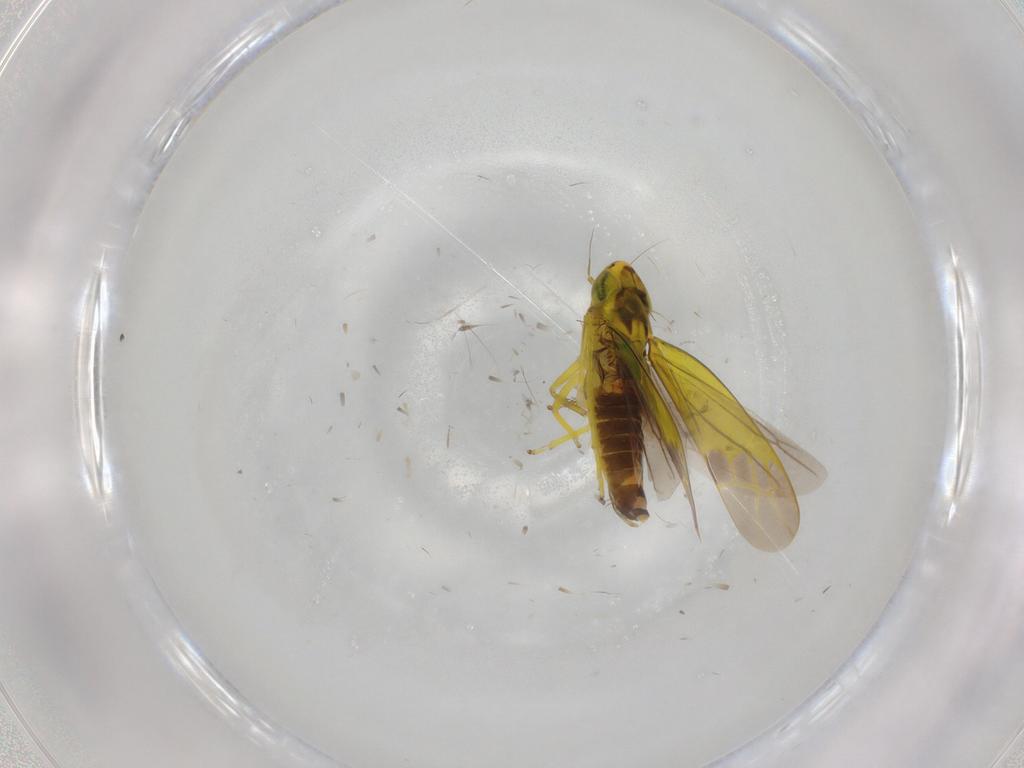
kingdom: Animalia
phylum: Arthropoda
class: Insecta
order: Hemiptera
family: Cicadellidae
